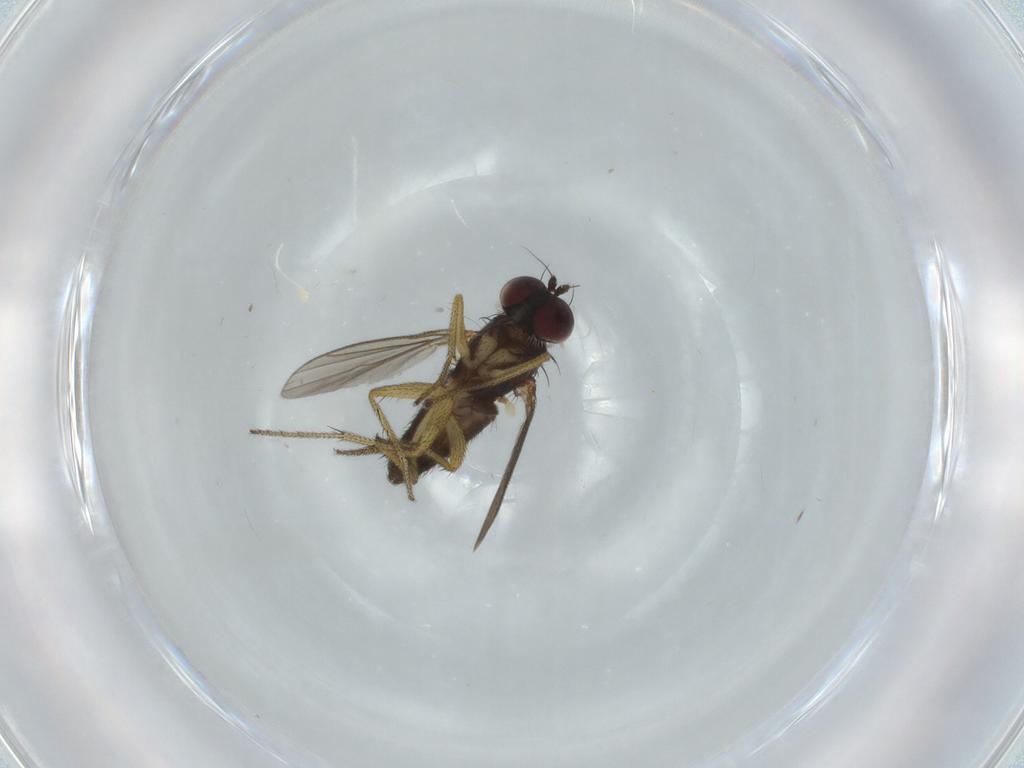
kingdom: Animalia
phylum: Arthropoda
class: Insecta
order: Diptera
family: Dolichopodidae
